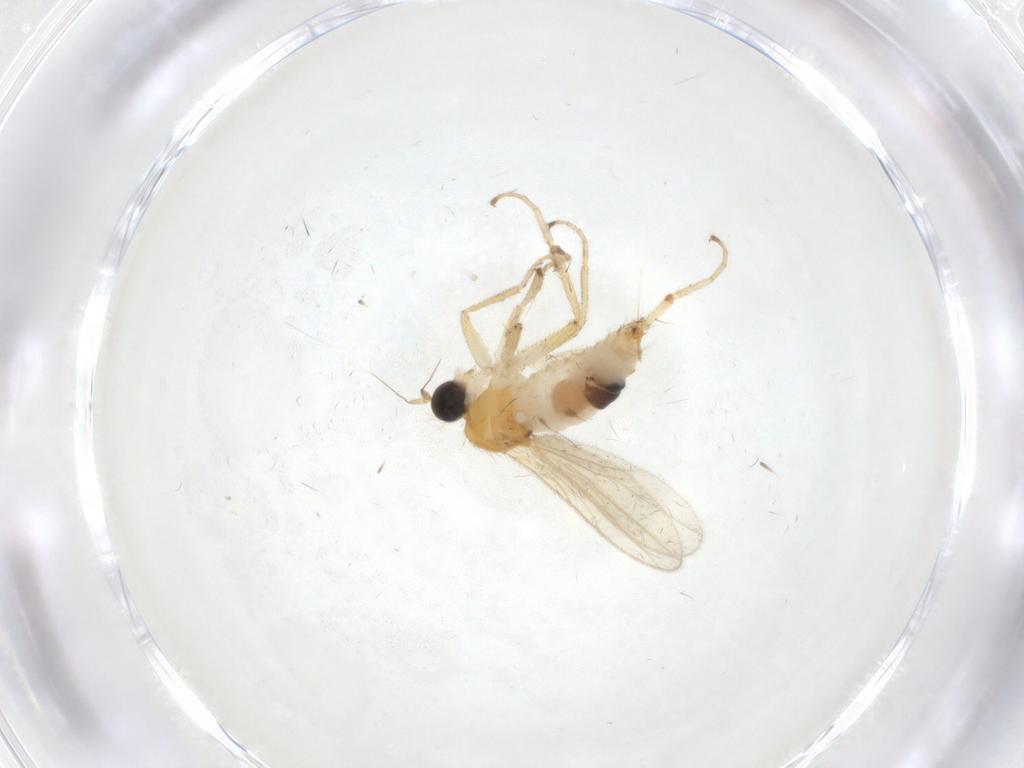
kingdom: Animalia
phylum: Arthropoda
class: Insecta
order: Diptera
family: Hybotidae
